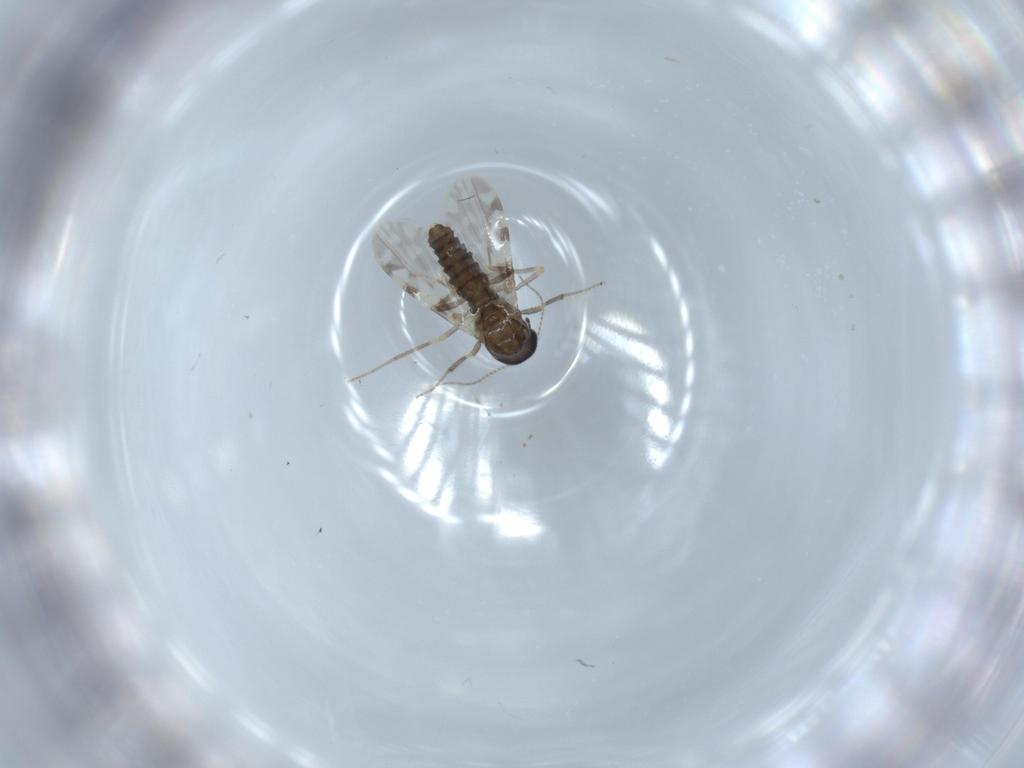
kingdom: Animalia
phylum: Arthropoda
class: Insecta
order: Diptera
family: Ceratopogonidae
